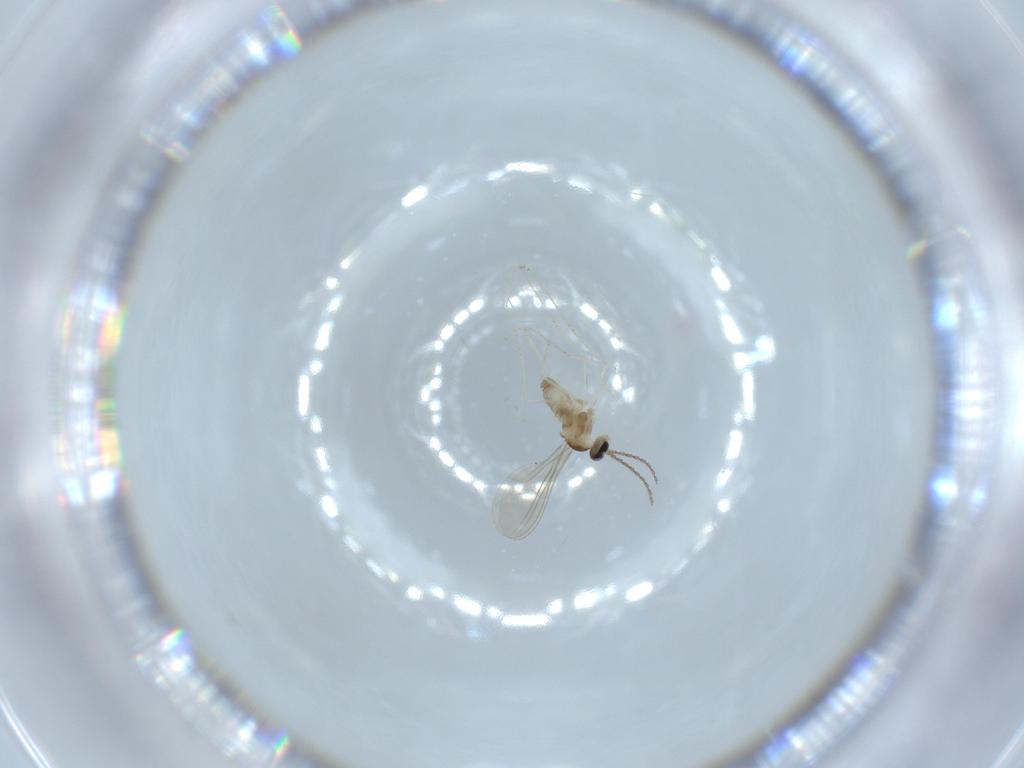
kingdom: Animalia
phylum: Arthropoda
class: Insecta
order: Diptera
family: Cecidomyiidae
